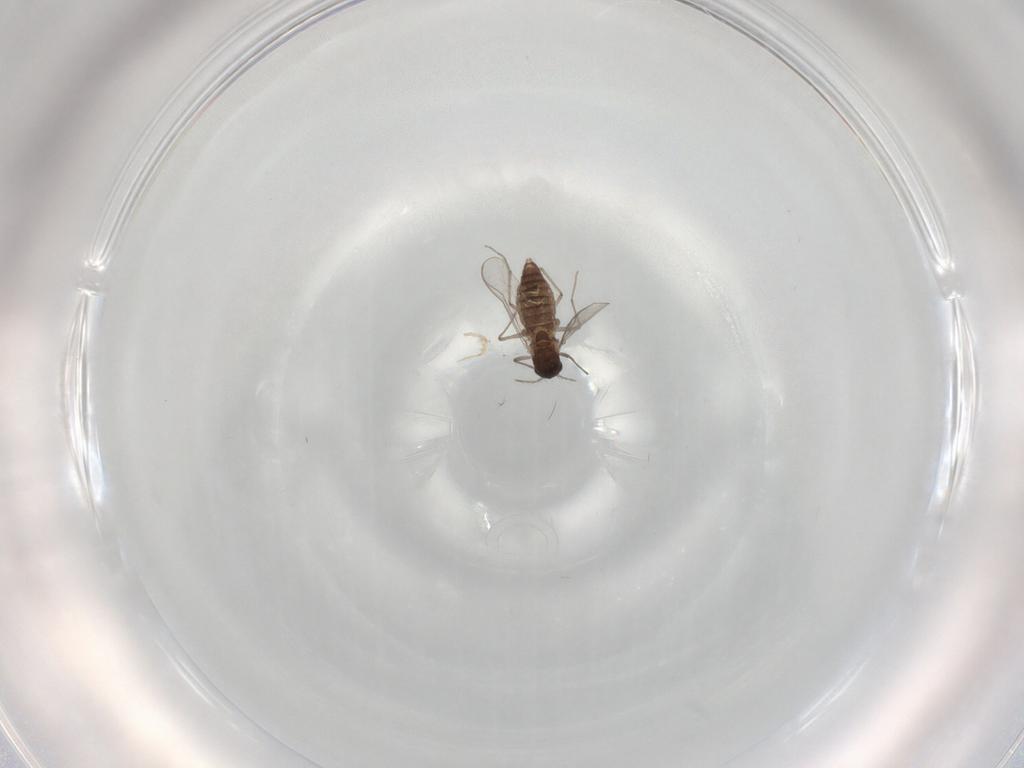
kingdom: Animalia
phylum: Arthropoda
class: Insecta
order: Diptera
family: Chironomidae
